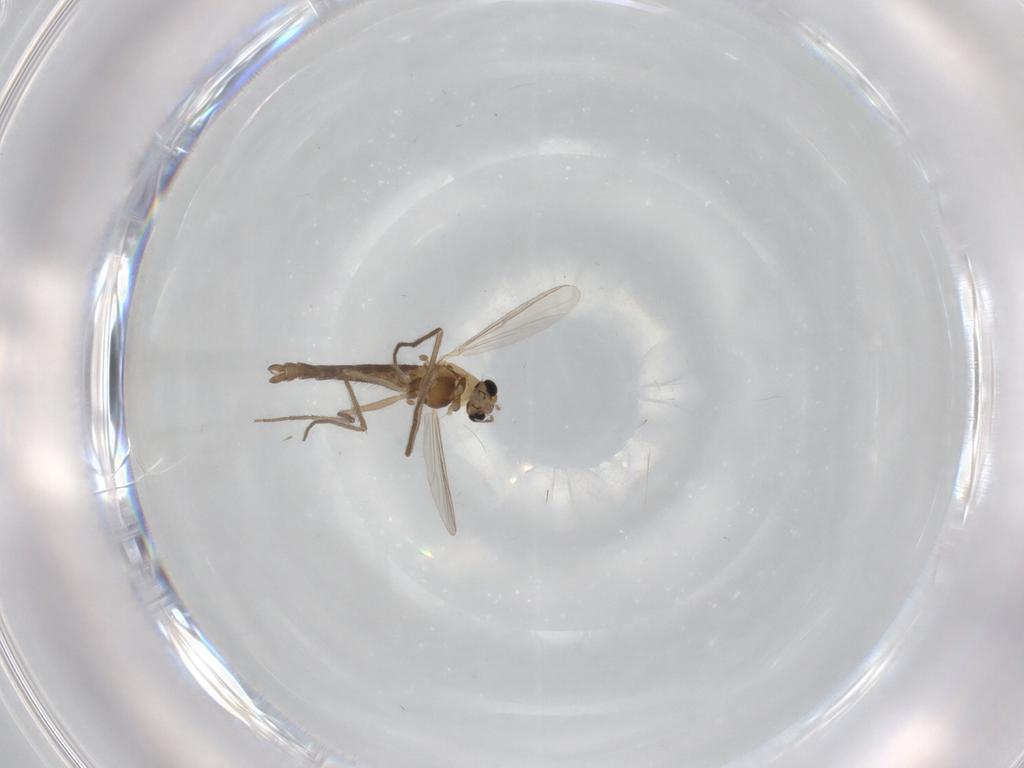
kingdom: Animalia
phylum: Arthropoda
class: Insecta
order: Diptera
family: Chironomidae
